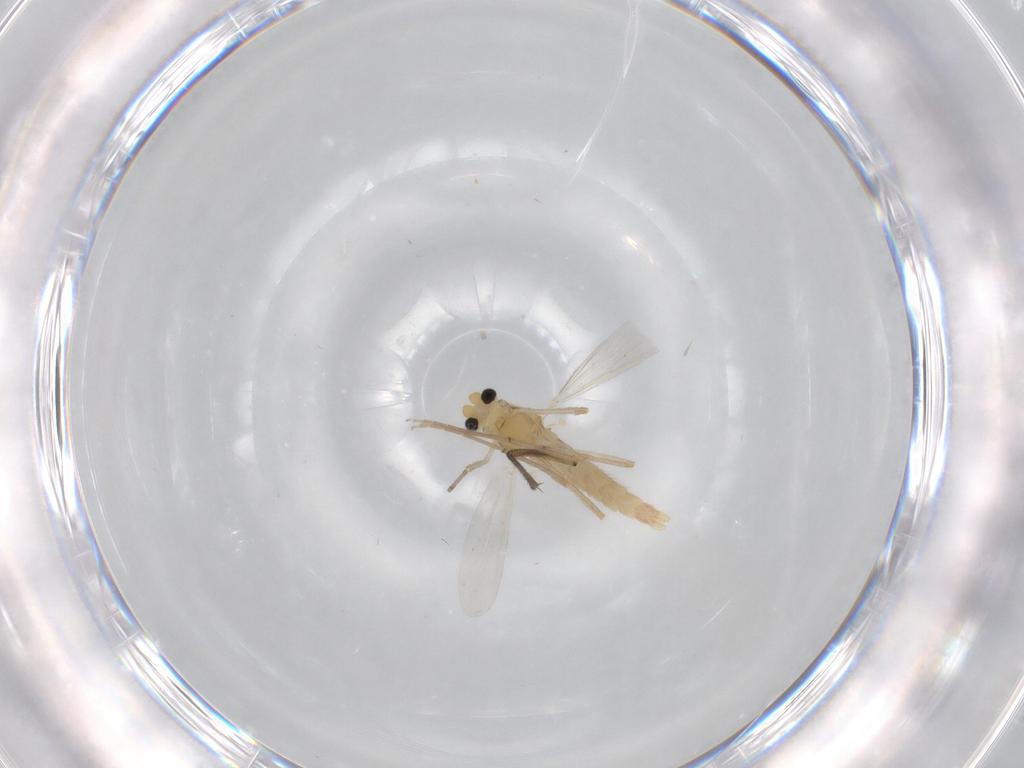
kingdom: Animalia
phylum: Arthropoda
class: Insecta
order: Diptera
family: Chironomidae
